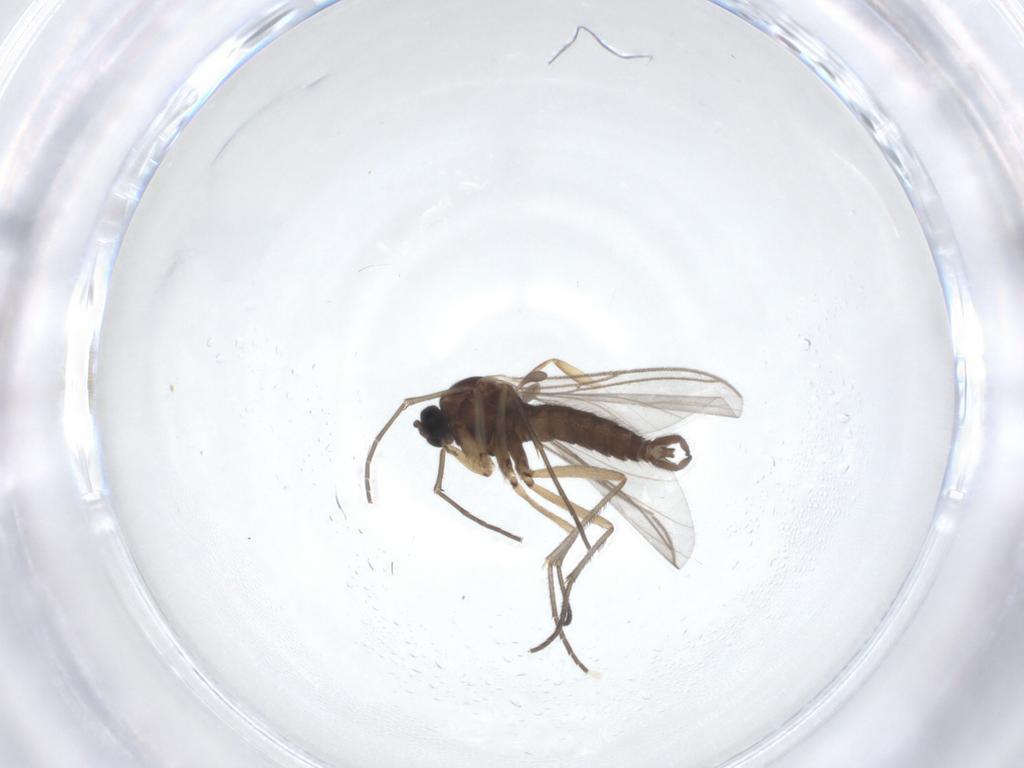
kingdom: Animalia
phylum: Arthropoda
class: Insecta
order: Diptera
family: Sciaridae
